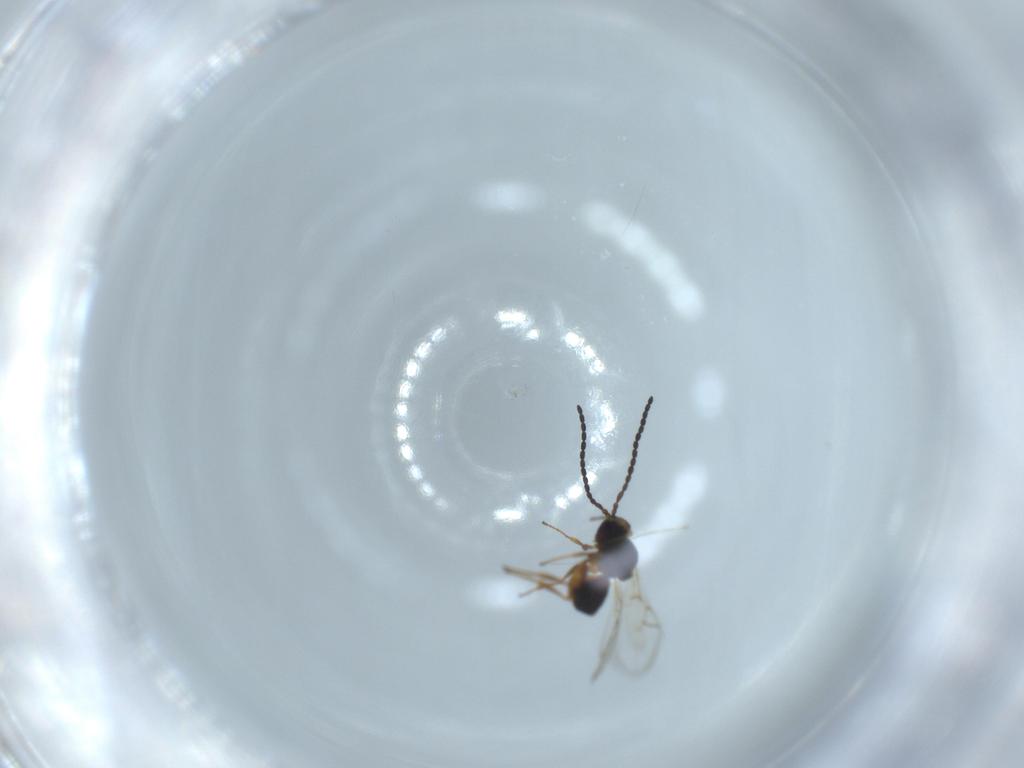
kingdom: Animalia
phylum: Arthropoda
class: Insecta
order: Hymenoptera
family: Figitidae
